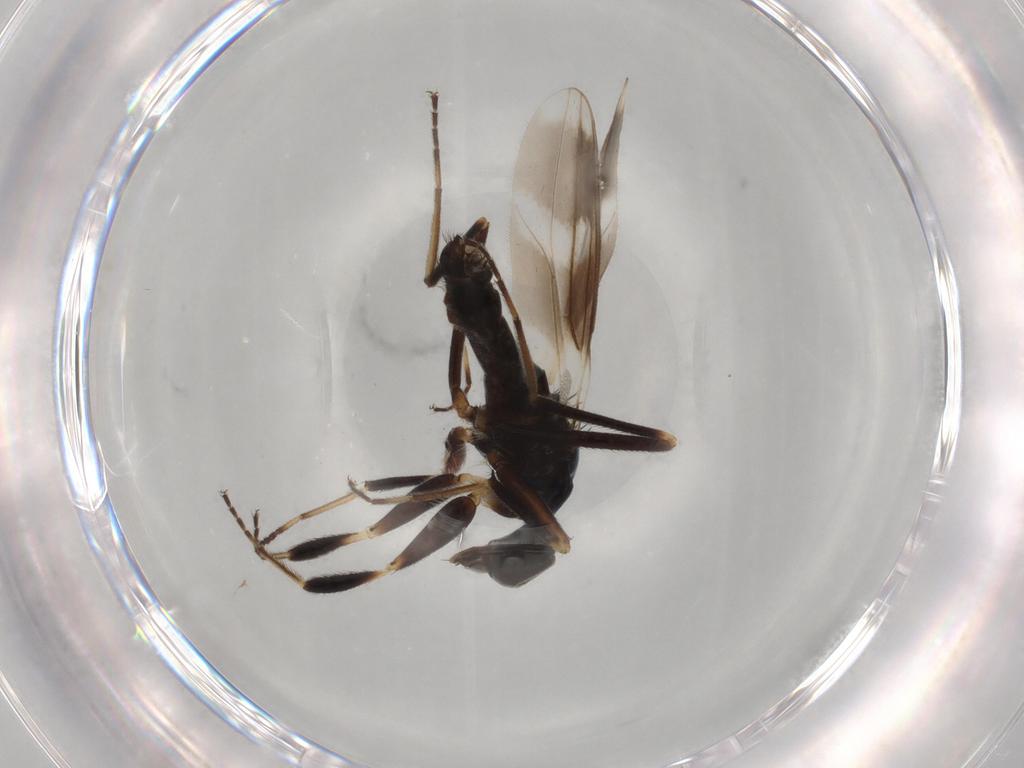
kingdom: Animalia
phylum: Arthropoda
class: Insecta
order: Diptera
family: Hybotidae
